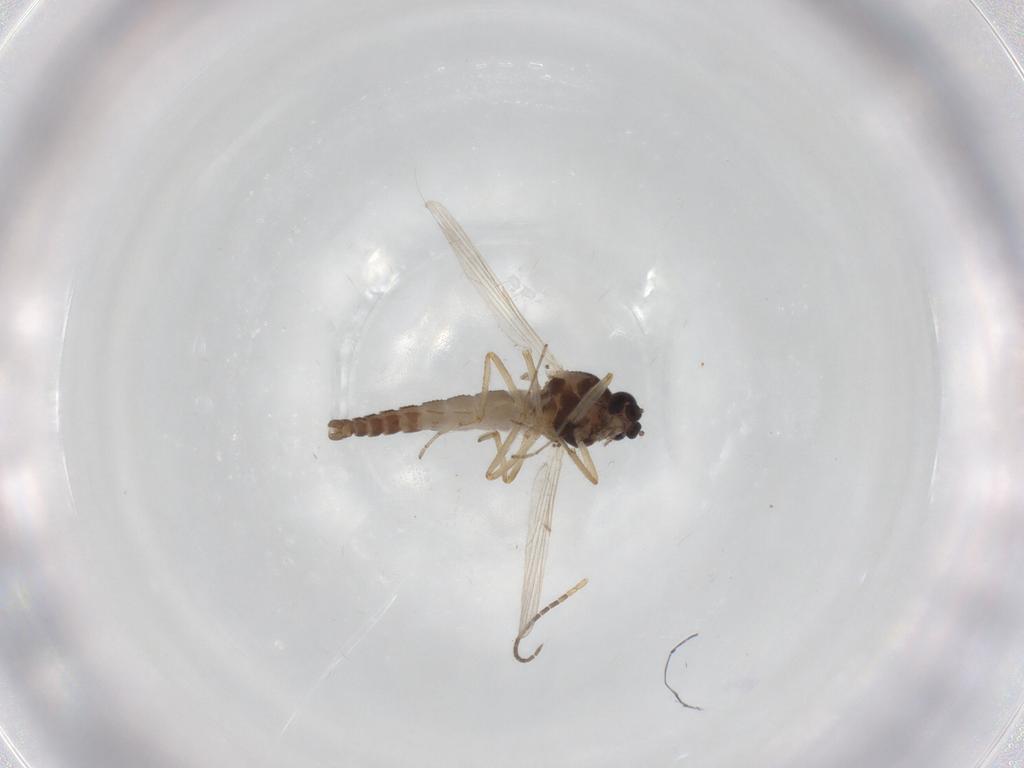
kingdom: Animalia
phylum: Arthropoda
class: Insecta
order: Diptera
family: Ceratopogonidae
